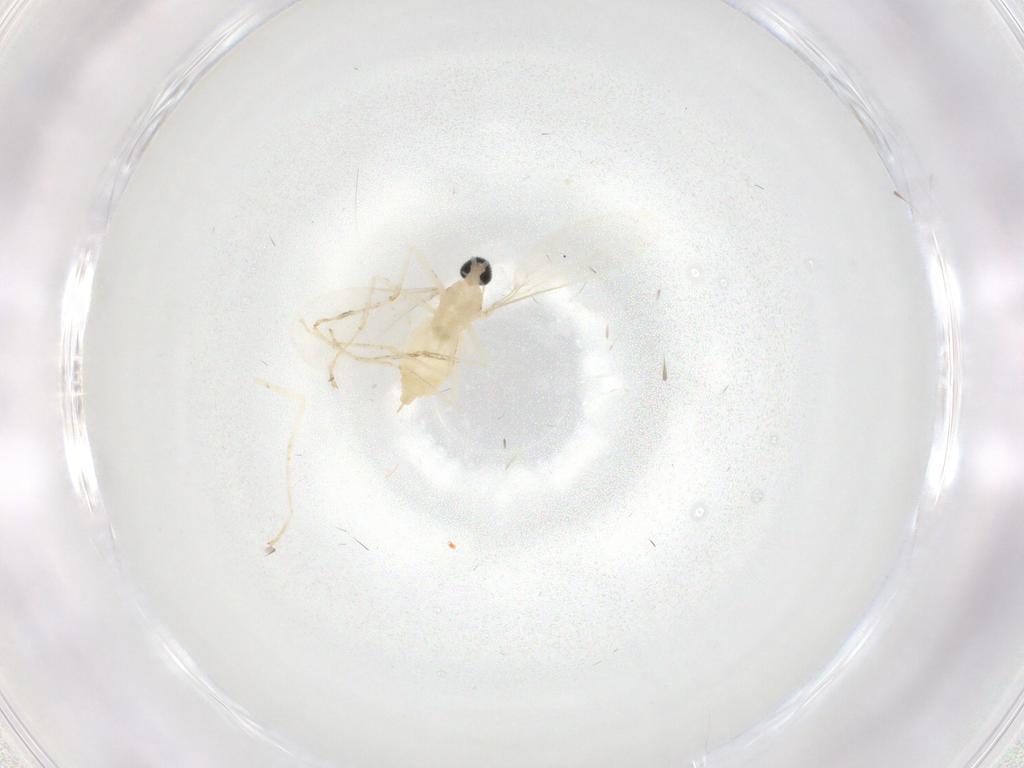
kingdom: Animalia
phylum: Arthropoda
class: Insecta
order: Diptera
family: Cecidomyiidae
